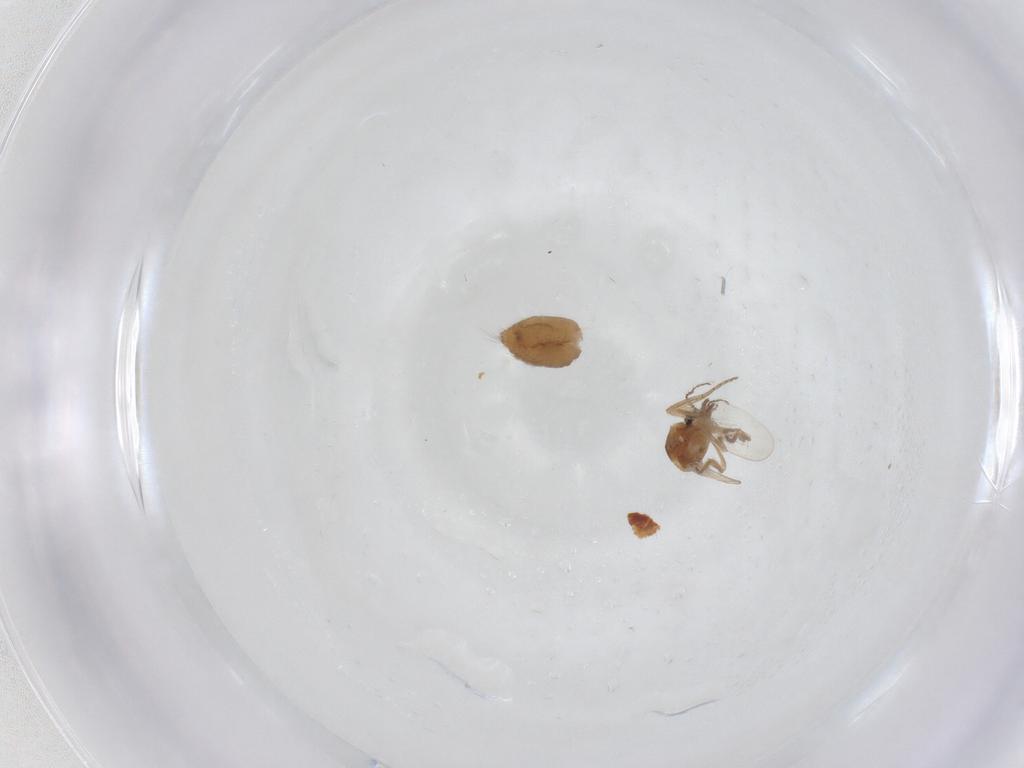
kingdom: Animalia
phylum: Arthropoda
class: Insecta
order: Diptera
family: Ceratopogonidae
